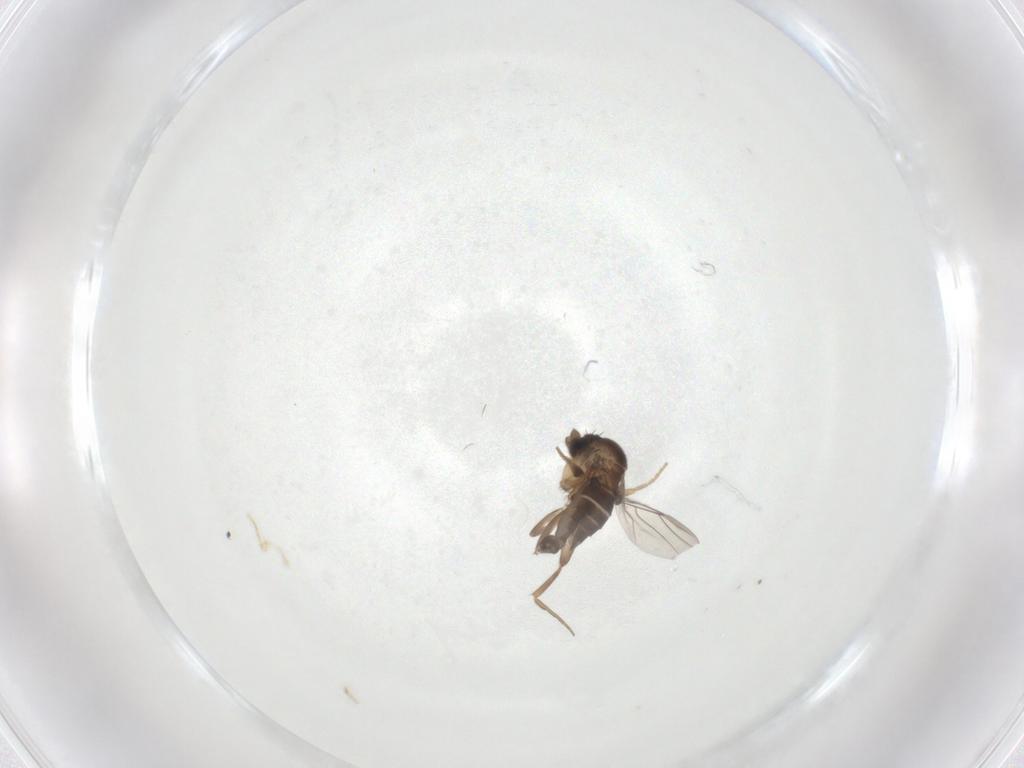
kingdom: Animalia
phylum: Arthropoda
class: Insecta
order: Diptera
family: Phoridae
